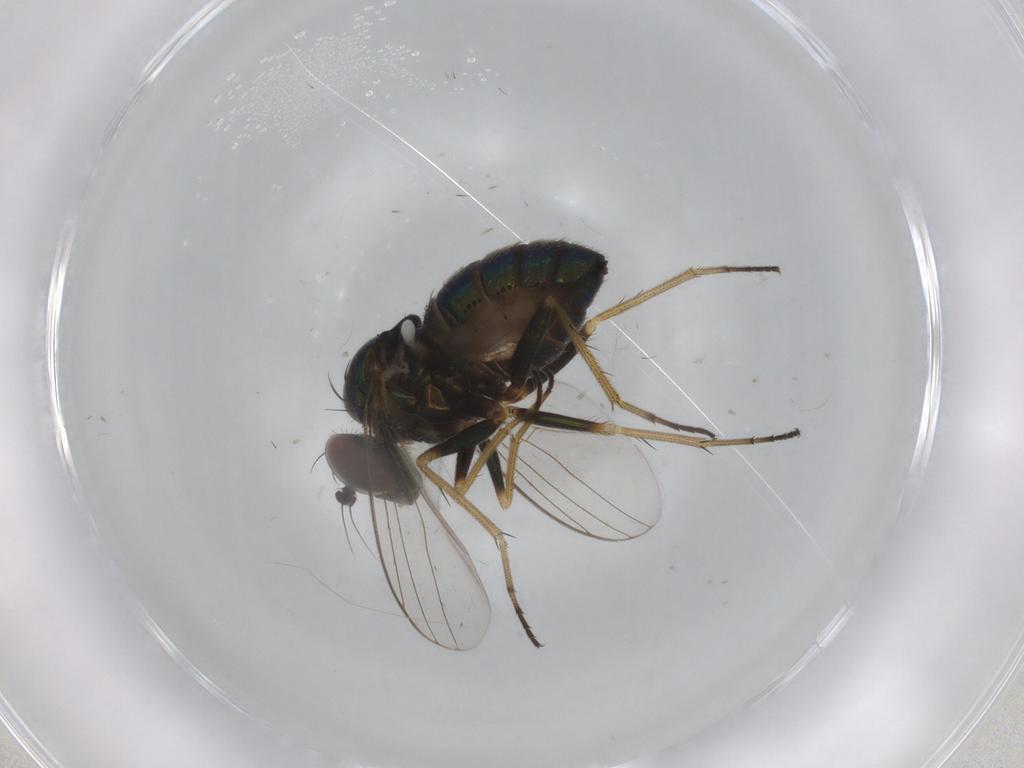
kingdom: Animalia
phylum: Arthropoda
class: Insecta
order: Diptera
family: Ephydridae
